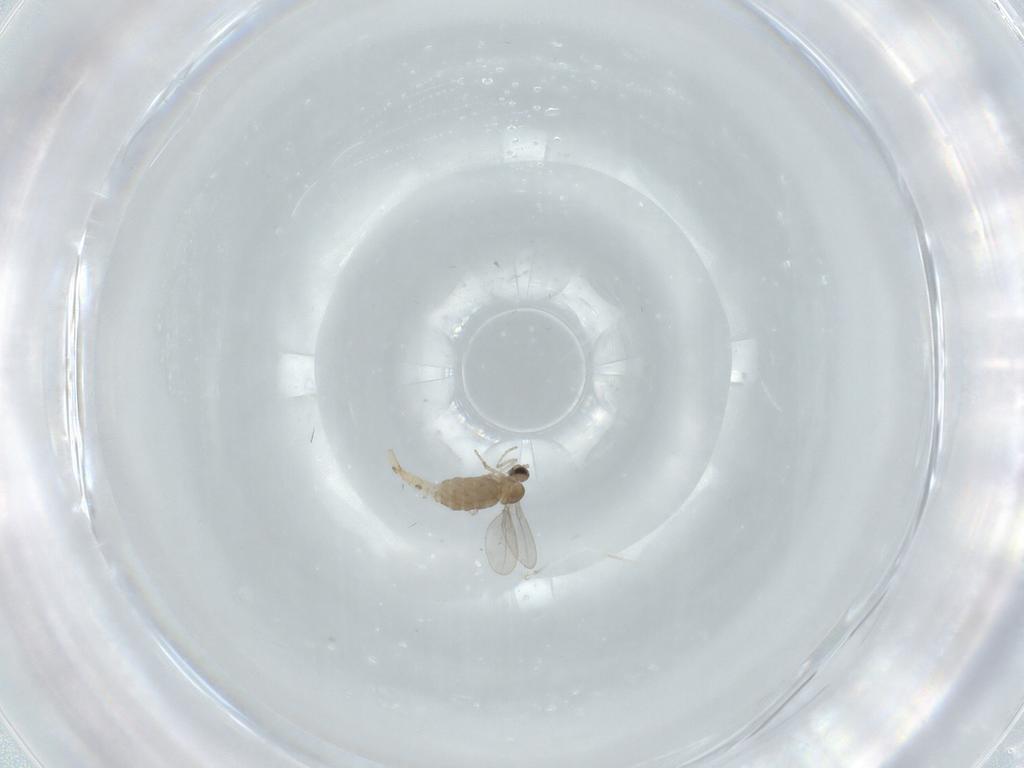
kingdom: Animalia
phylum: Arthropoda
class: Insecta
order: Diptera
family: Cecidomyiidae
